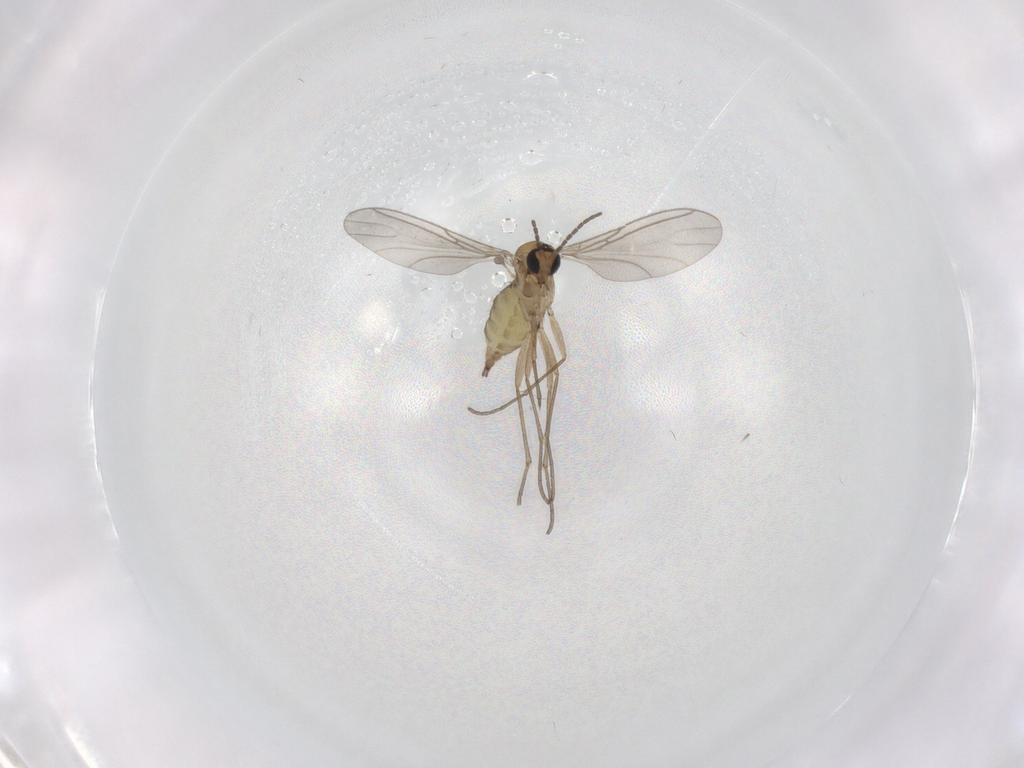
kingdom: Animalia
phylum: Arthropoda
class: Insecta
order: Diptera
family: Sciaridae
